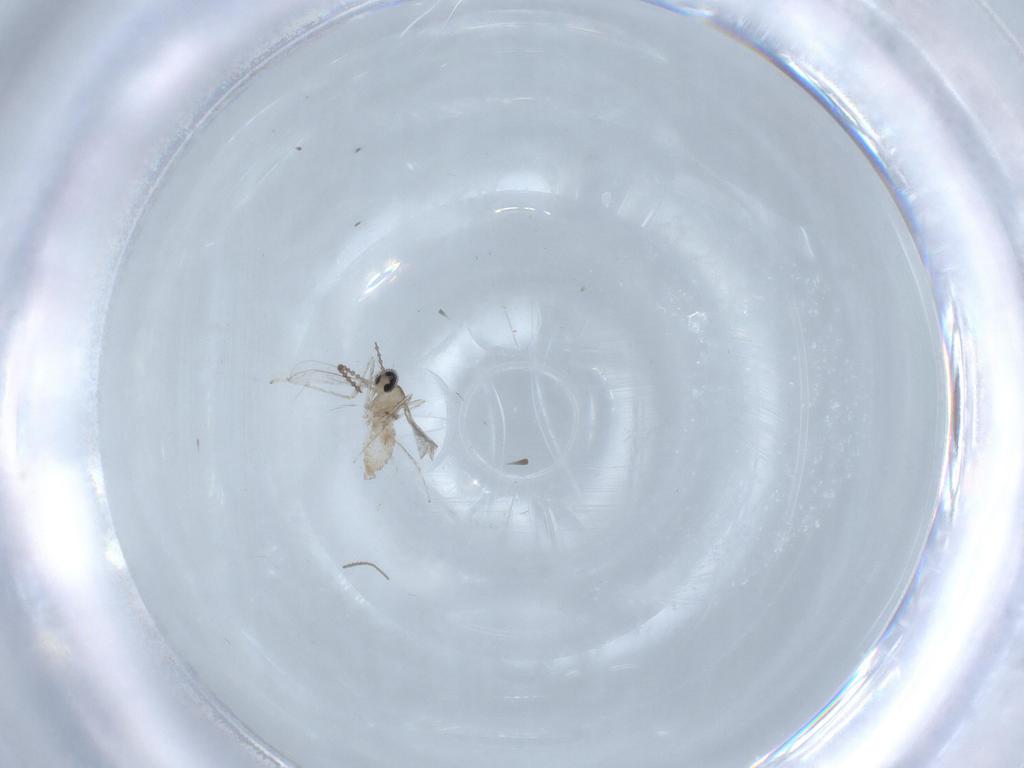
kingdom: Animalia
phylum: Arthropoda
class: Insecta
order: Diptera
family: Cecidomyiidae
